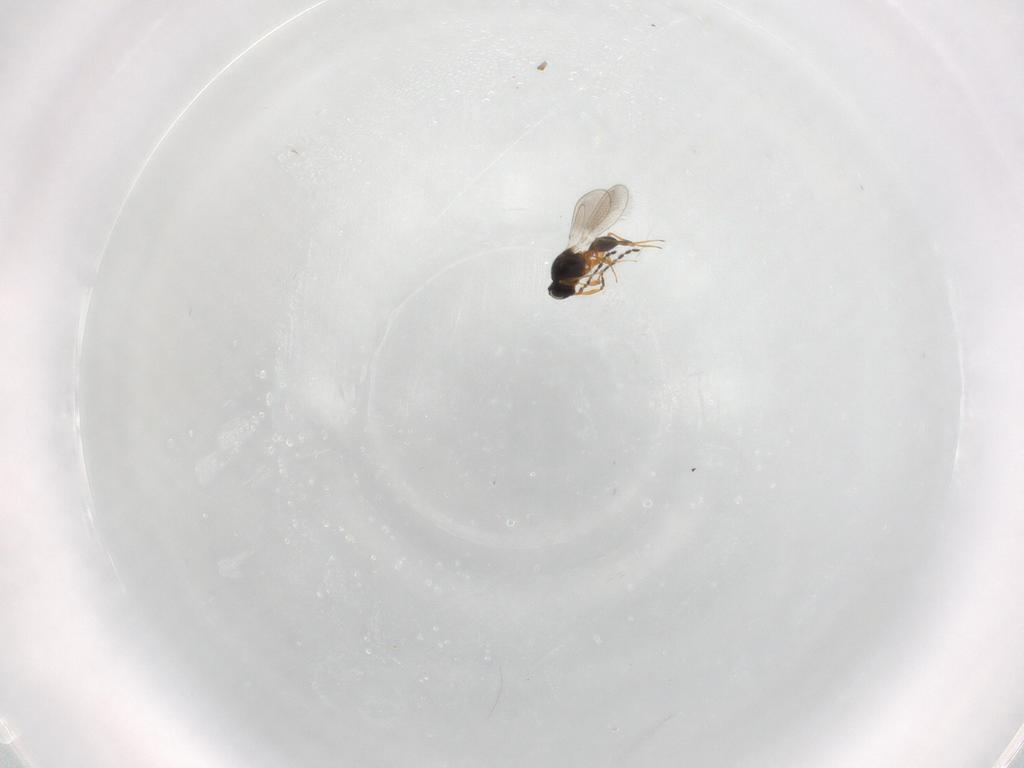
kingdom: Animalia
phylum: Arthropoda
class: Insecta
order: Hymenoptera
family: Platygastridae
